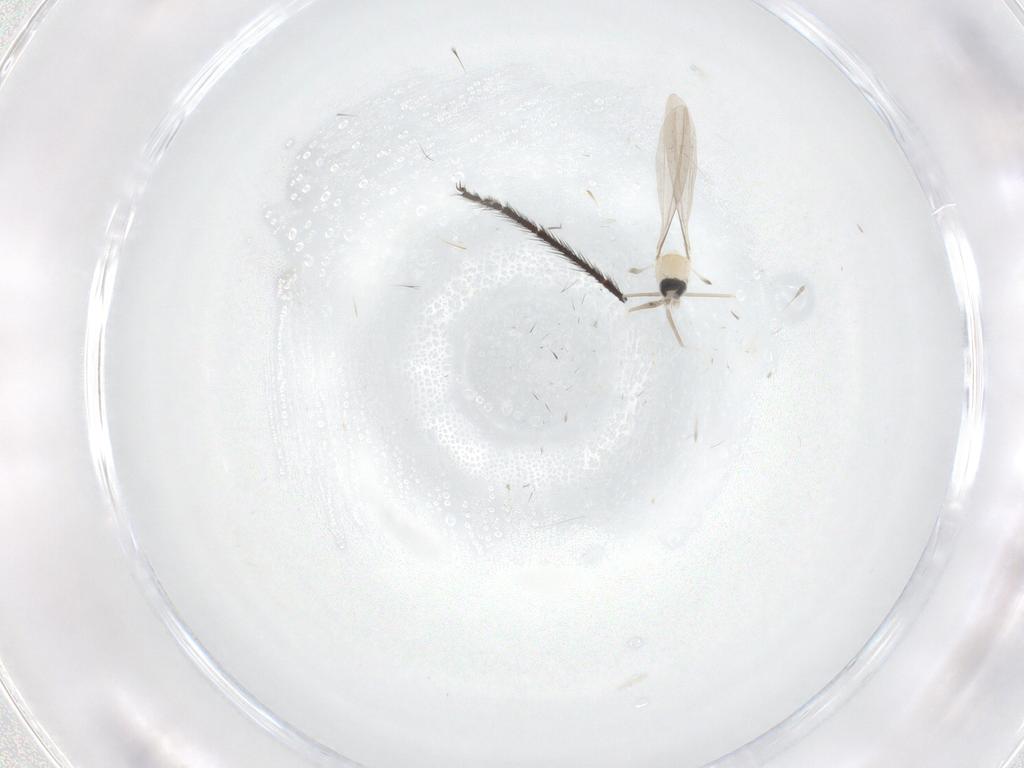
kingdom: Animalia
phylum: Arthropoda
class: Insecta
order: Diptera
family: Cecidomyiidae
